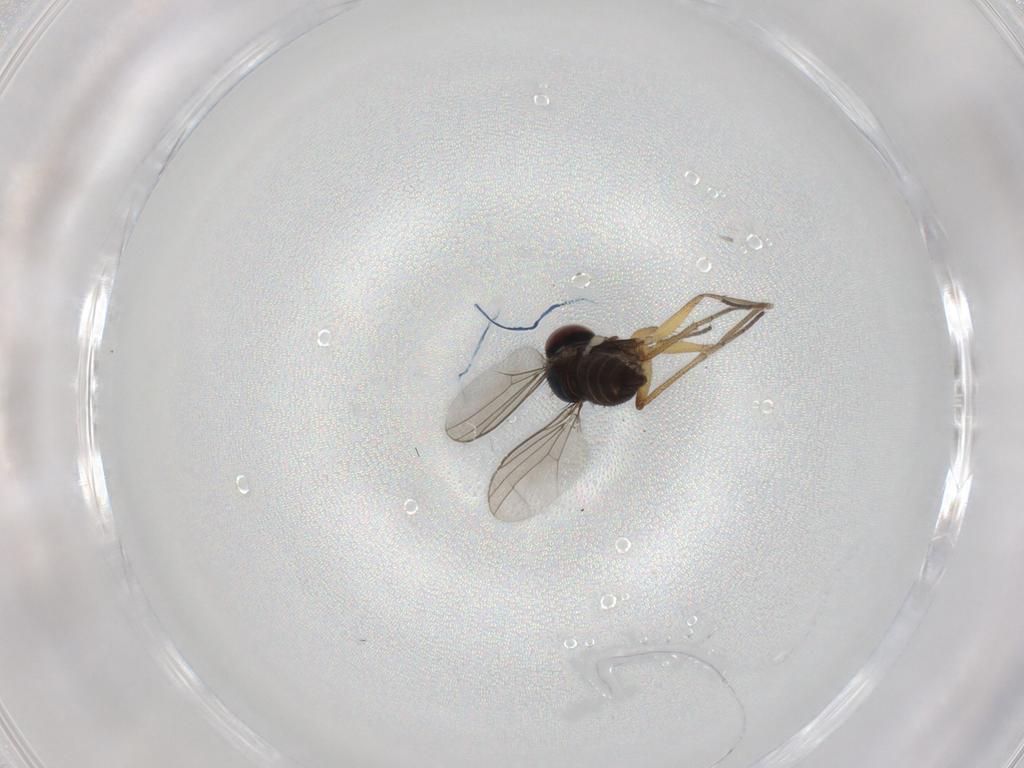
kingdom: Animalia
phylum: Arthropoda
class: Insecta
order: Diptera
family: Dolichopodidae
